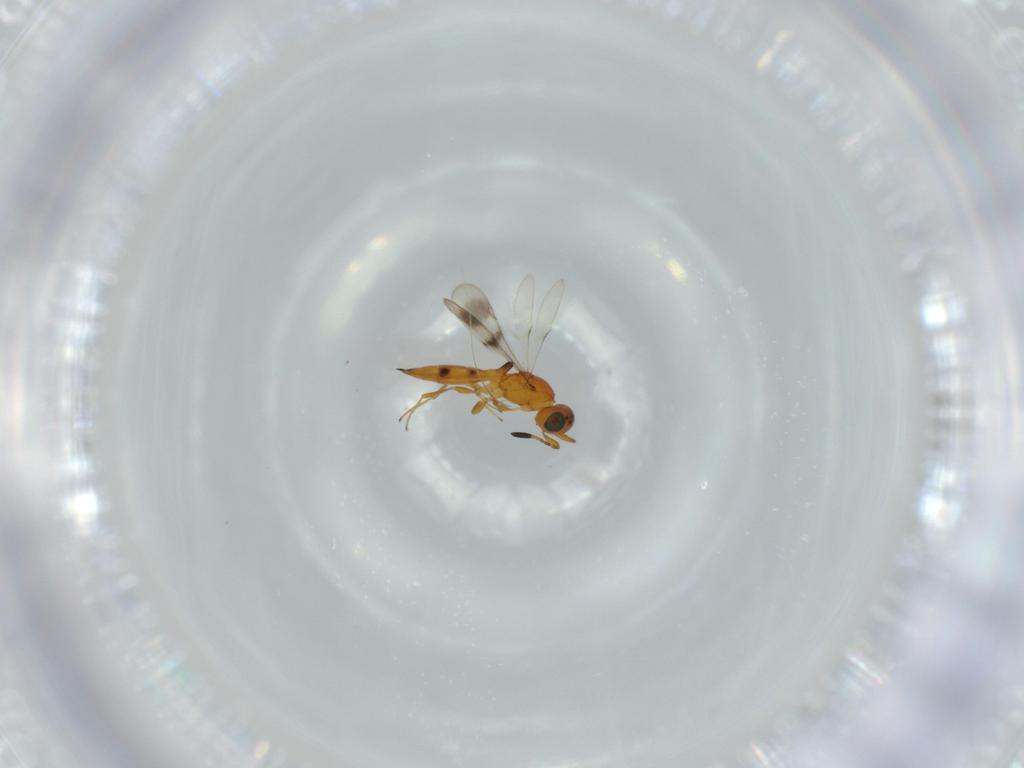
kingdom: Animalia
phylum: Arthropoda
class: Insecta
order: Hymenoptera
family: Scelionidae
